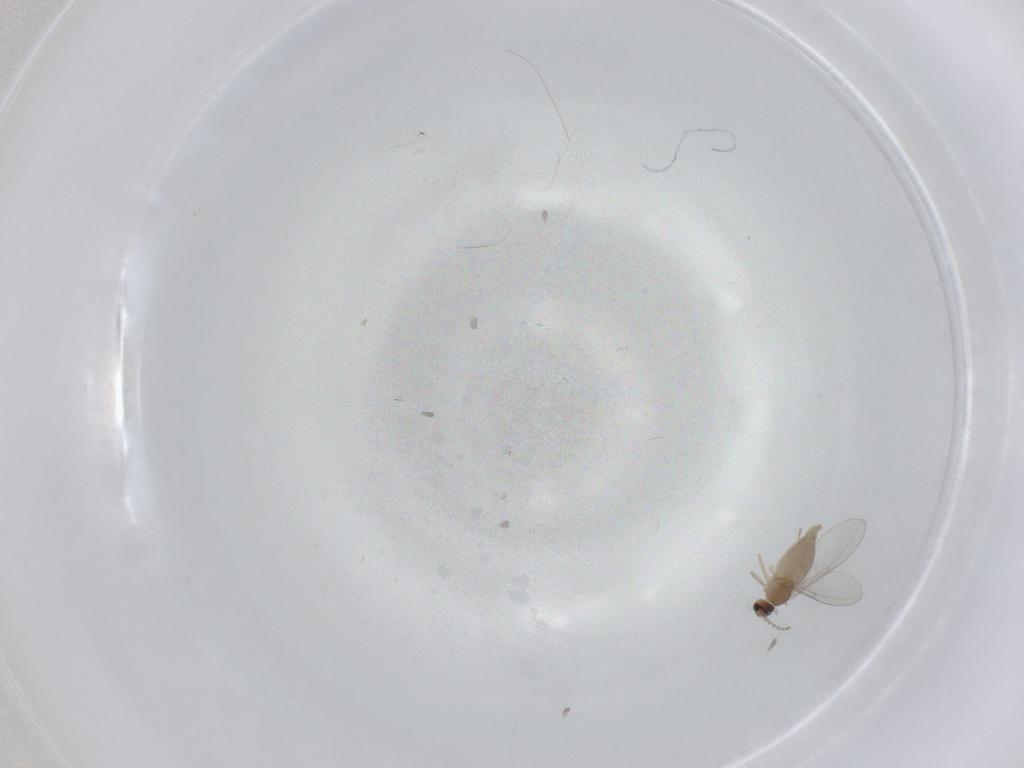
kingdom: Animalia
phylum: Arthropoda
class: Insecta
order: Diptera
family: Cecidomyiidae
